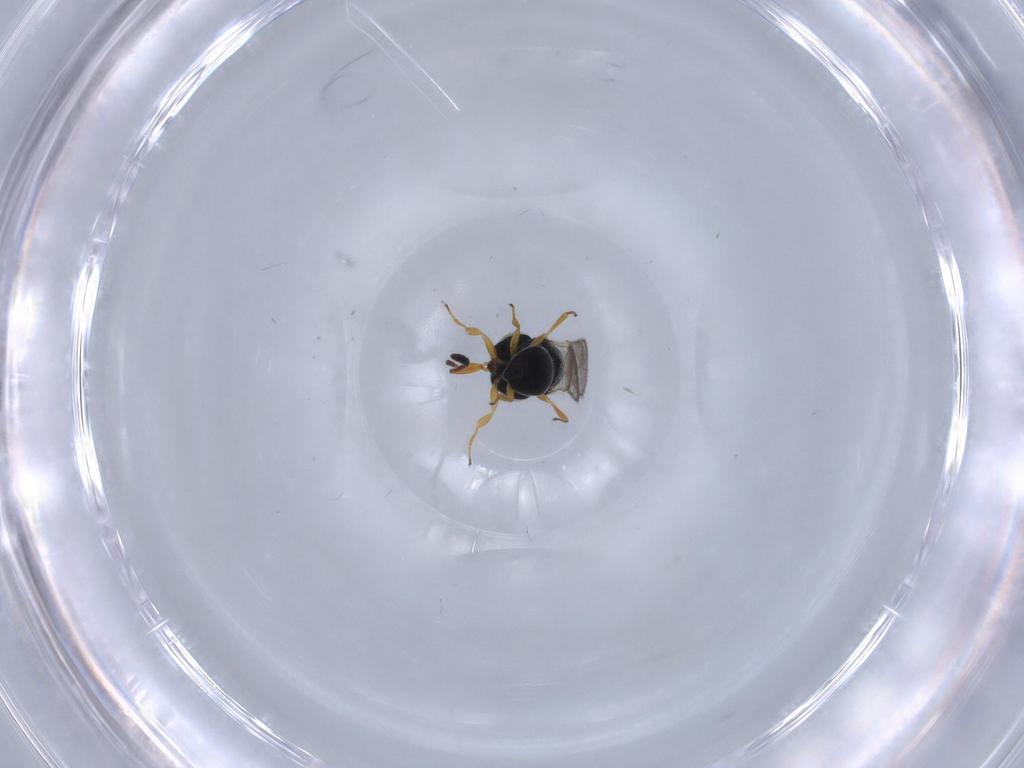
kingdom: Animalia
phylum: Arthropoda
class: Insecta
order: Hymenoptera
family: Scelionidae
